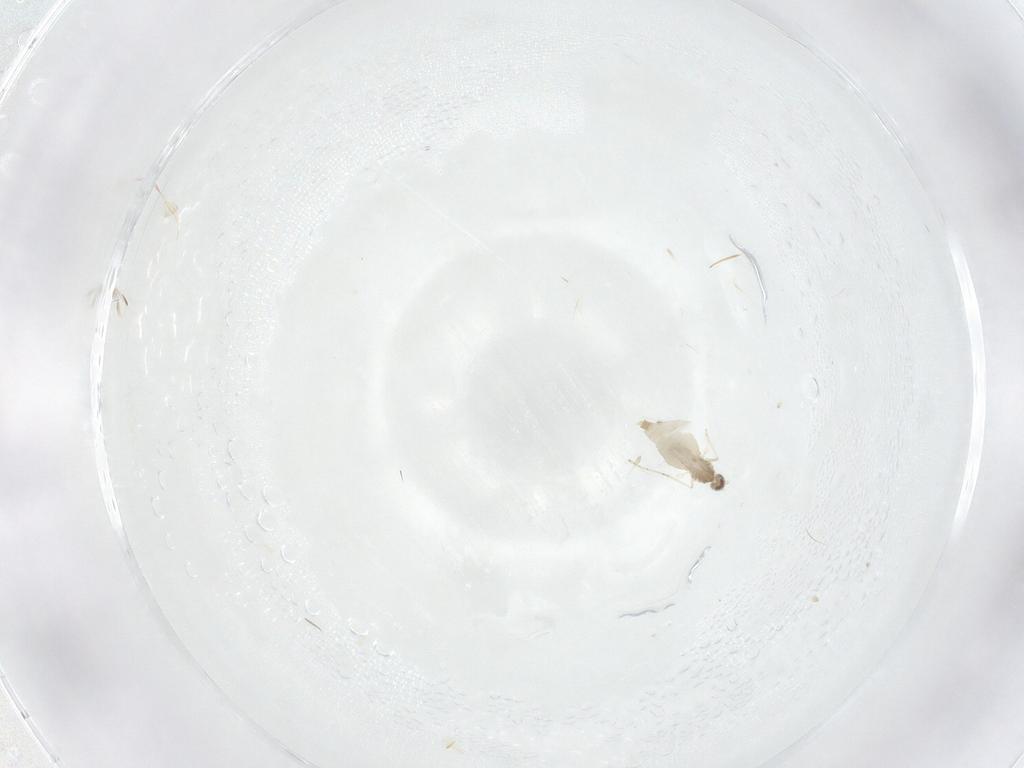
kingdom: Animalia
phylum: Arthropoda
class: Insecta
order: Diptera
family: Cecidomyiidae
